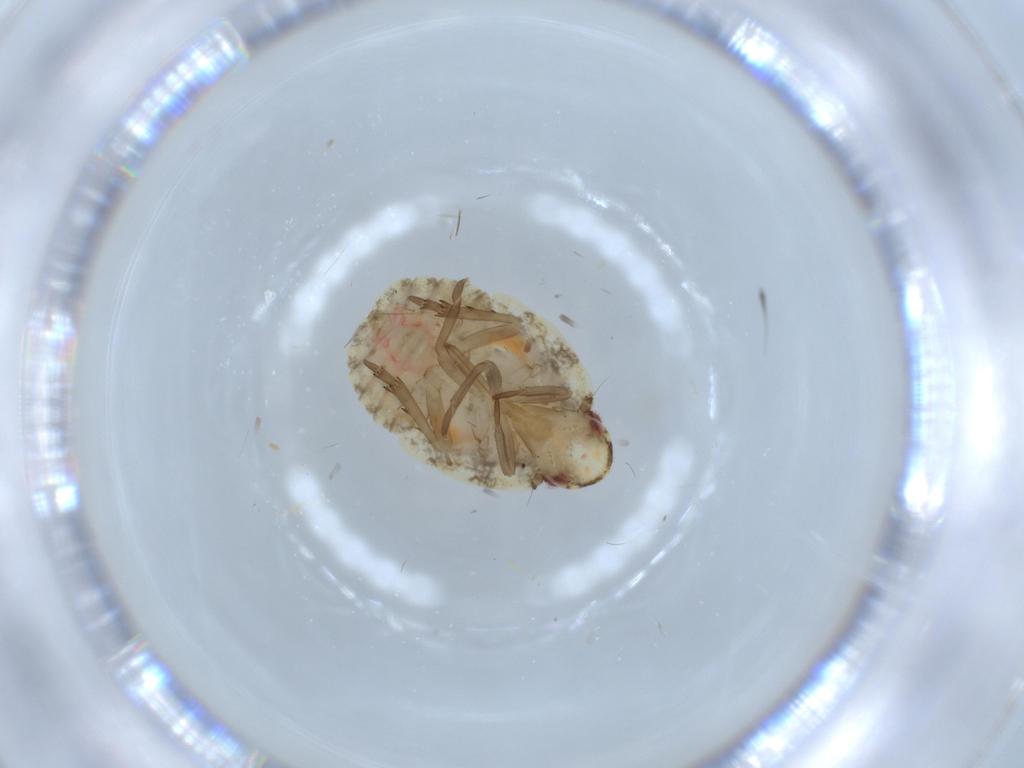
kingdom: Animalia
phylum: Arthropoda
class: Insecta
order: Hemiptera
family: Flatidae
